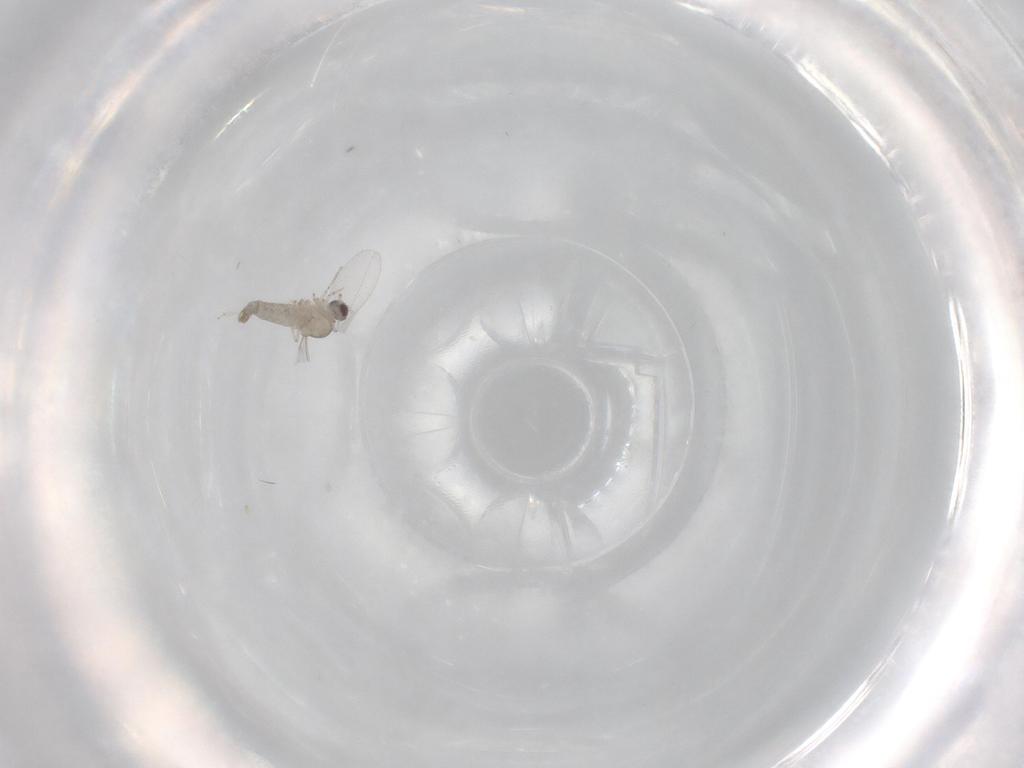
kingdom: Animalia
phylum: Arthropoda
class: Insecta
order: Diptera
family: Cecidomyiidae
